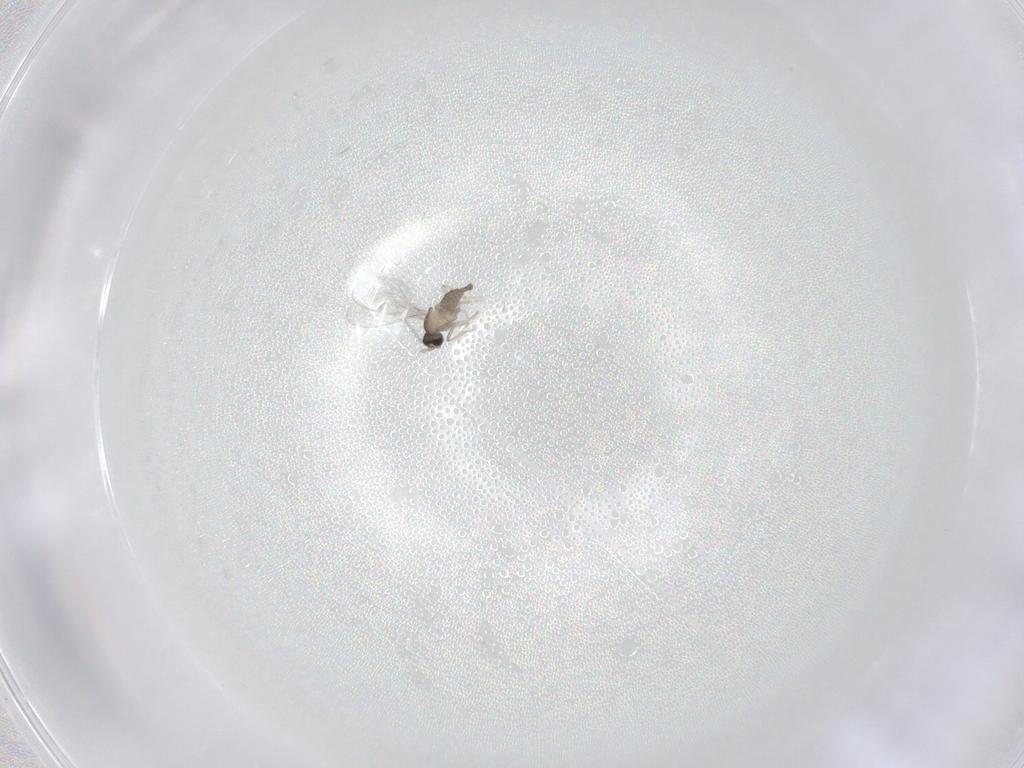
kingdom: Animalia
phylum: Arthropoda
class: Insecta
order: Diptera
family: Cecidomyiidae
